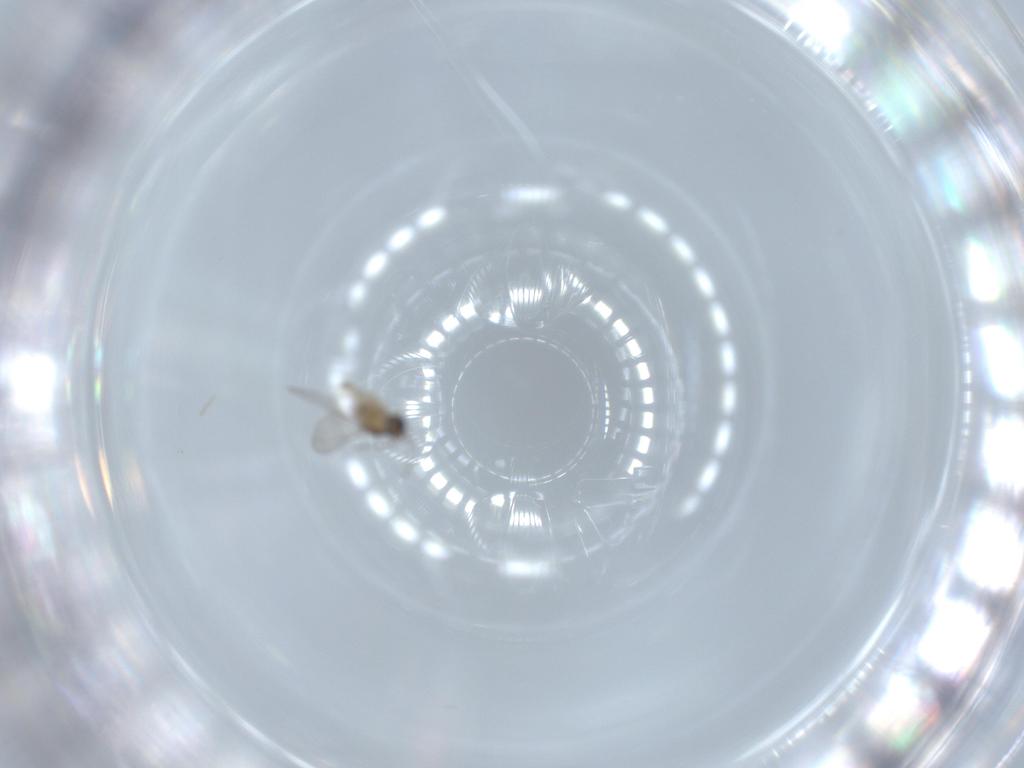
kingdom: Animalia
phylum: Arthropoda
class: Insecta
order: Diptera
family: Cecidomyiidae
